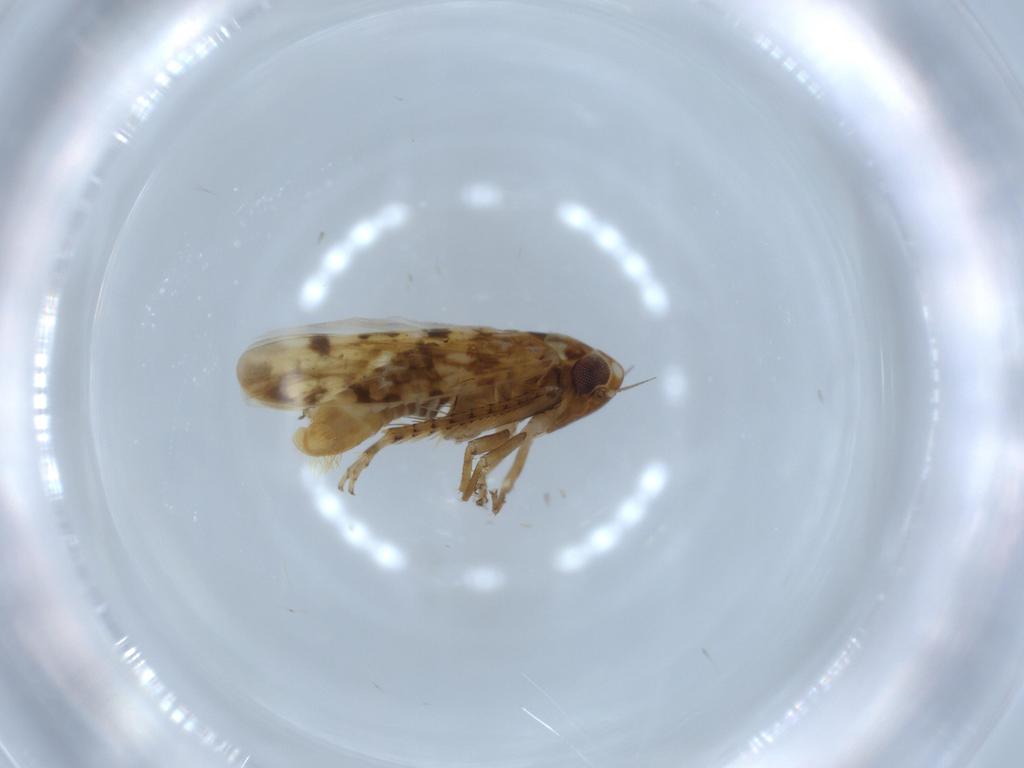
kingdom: Animalia
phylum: Arthropoda
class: Insecta
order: Hemiptera
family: Cicadellidae
